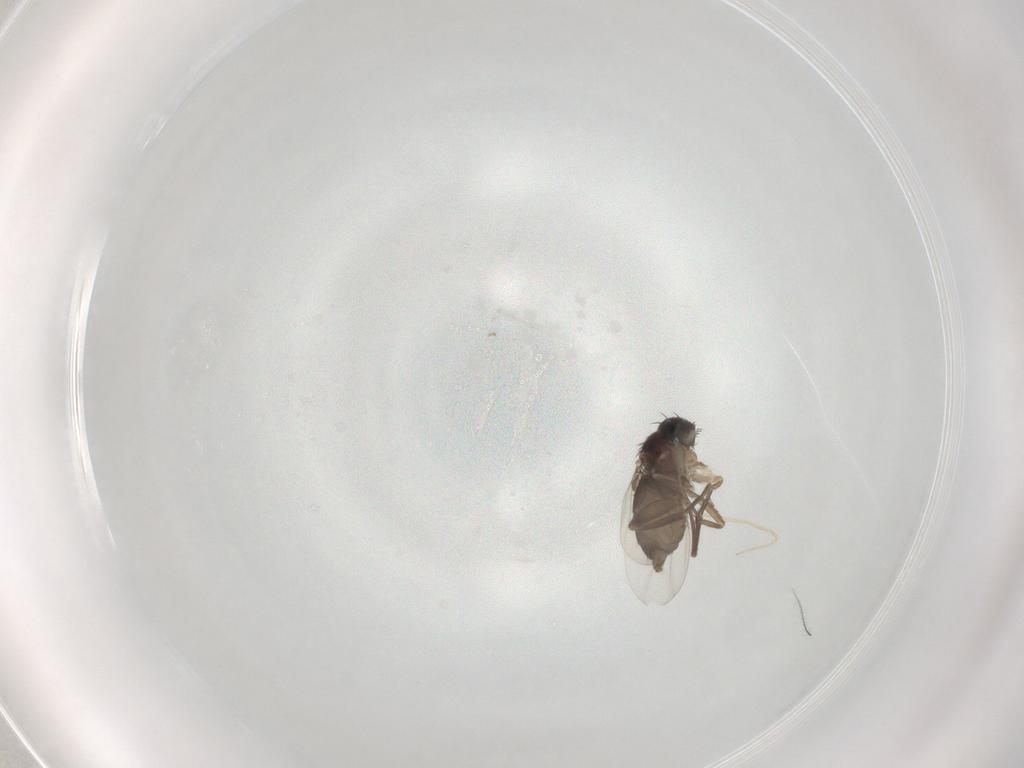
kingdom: Animalia
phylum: Arthropoda
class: Insecta
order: Diptera
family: Phoridae
